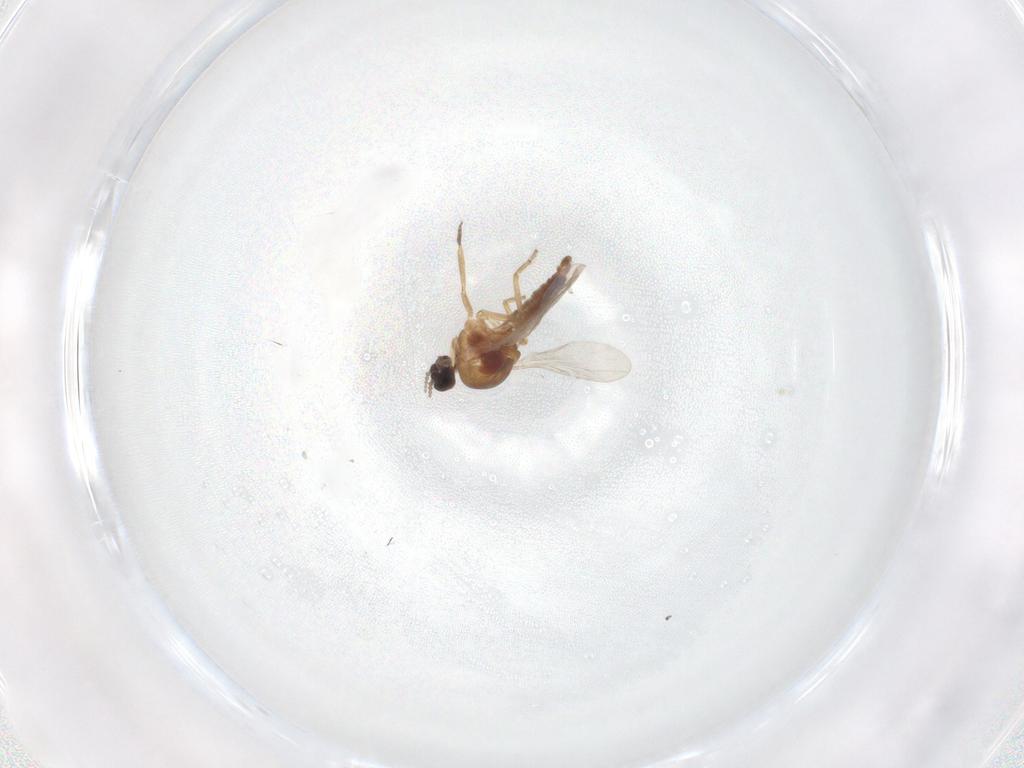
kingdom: Animalia
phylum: Arthropoda
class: Insecta
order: Diptera
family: Ceratopogonidae
